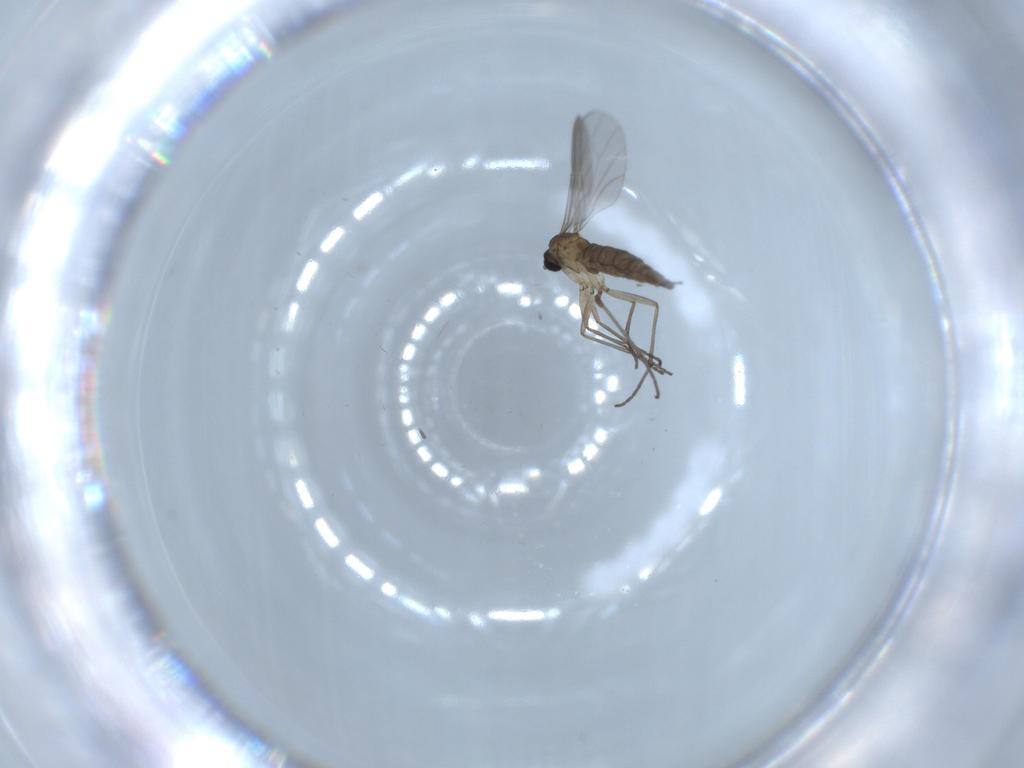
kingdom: Animalia
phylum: Arthropoda
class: Insecta
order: Diptera
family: Sciaridae
